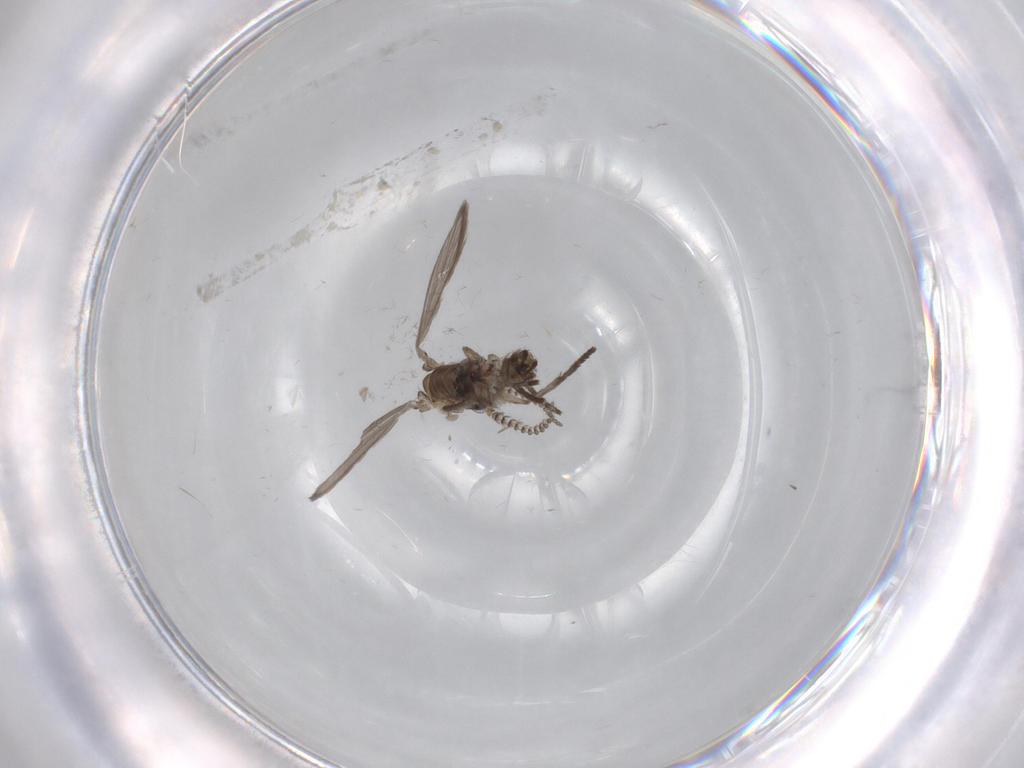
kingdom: Animalia
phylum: Arthropoda
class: Insecta
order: Diptera
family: Psychodidae
